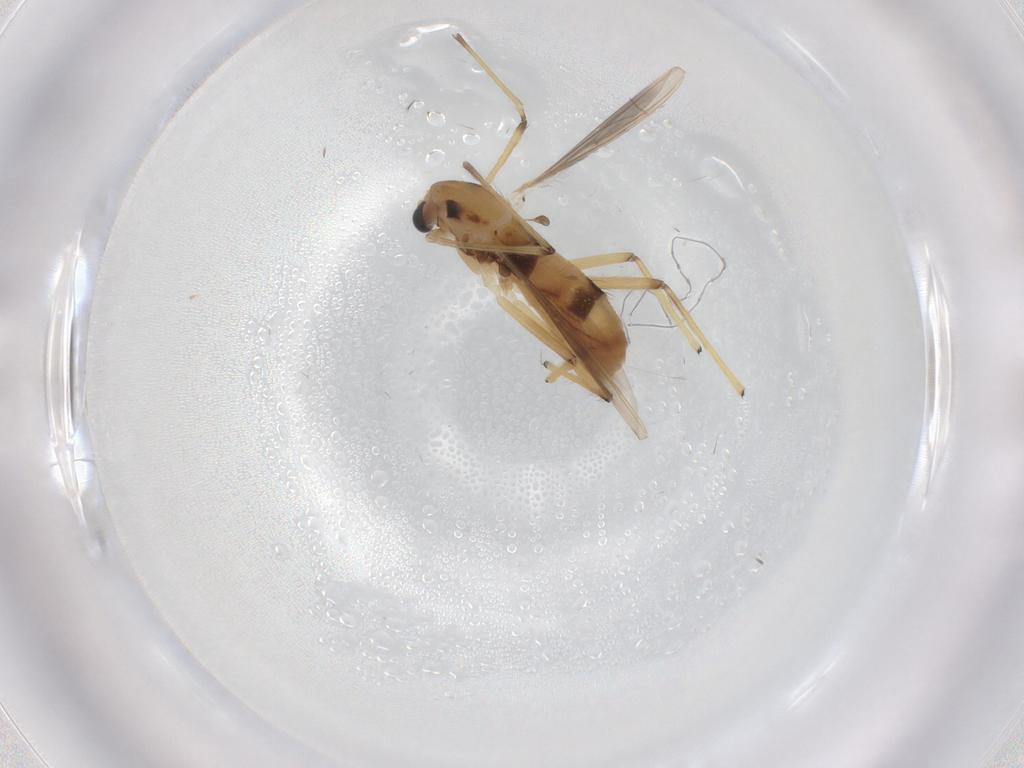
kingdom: Animalia
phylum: Arthropoda
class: Insecta
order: Diptera
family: Chironomidae
